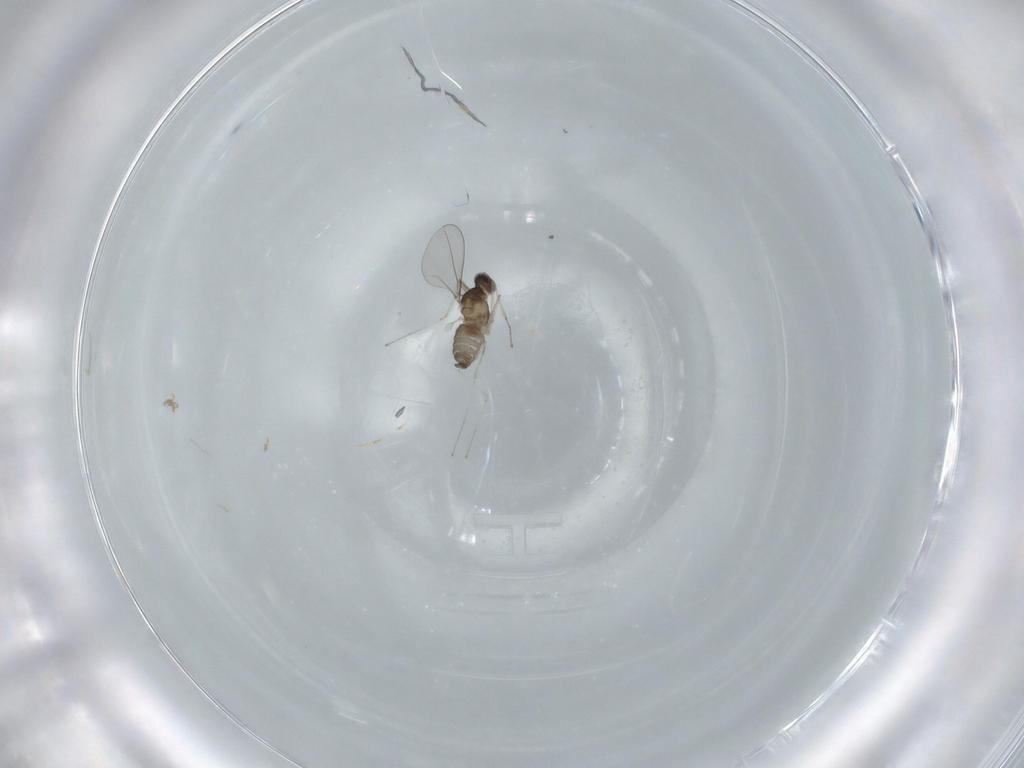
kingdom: Animalia
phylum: Arthropoda
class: Insecta
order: Diptera
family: Cecidomyiidae
